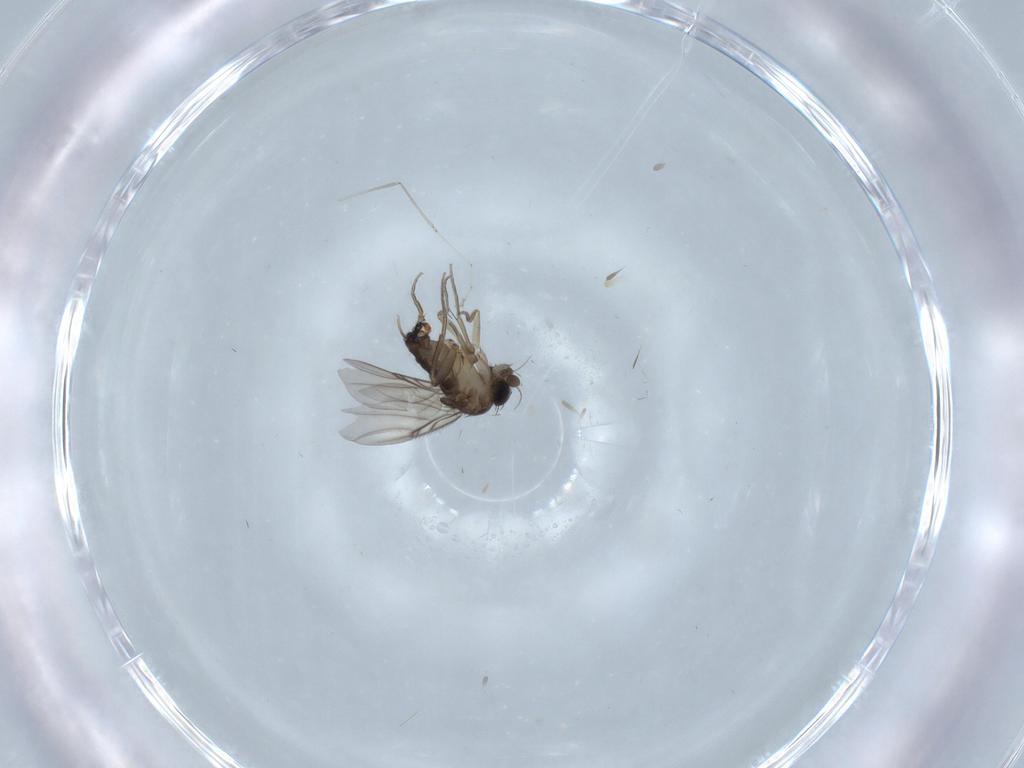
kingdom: Animalia
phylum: Arthropoda
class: Insecta
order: Diptera
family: Phoridae
